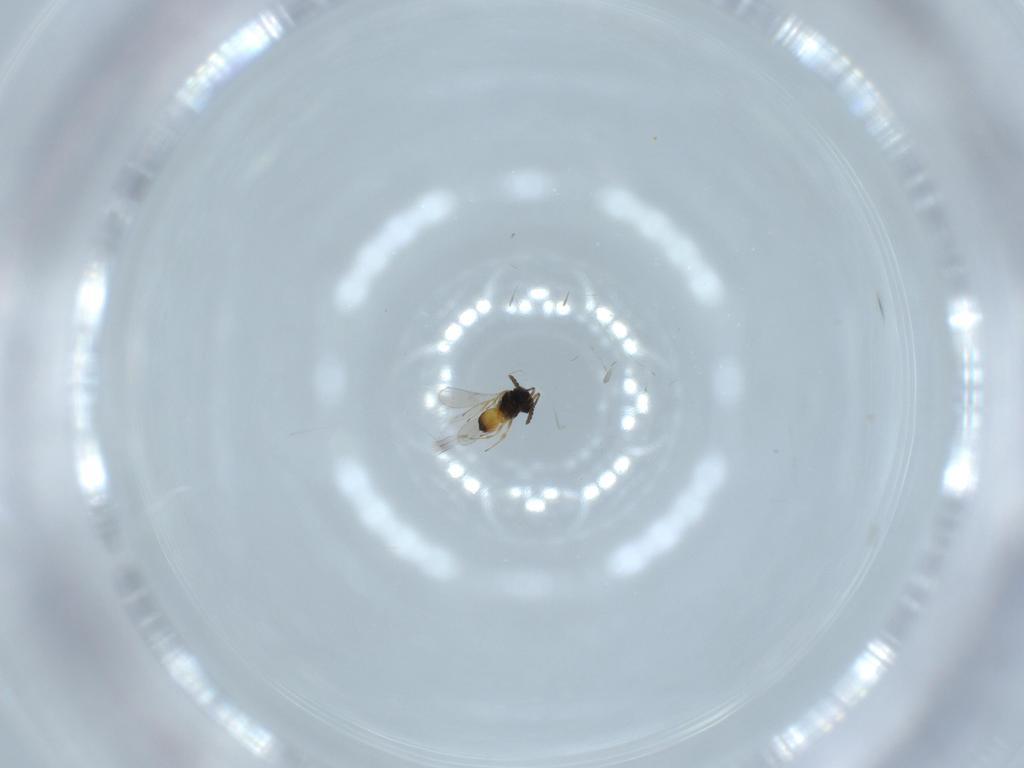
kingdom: Animalia
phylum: Arthropoda
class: Insecta
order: Hymenoptera
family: Scelionidae
